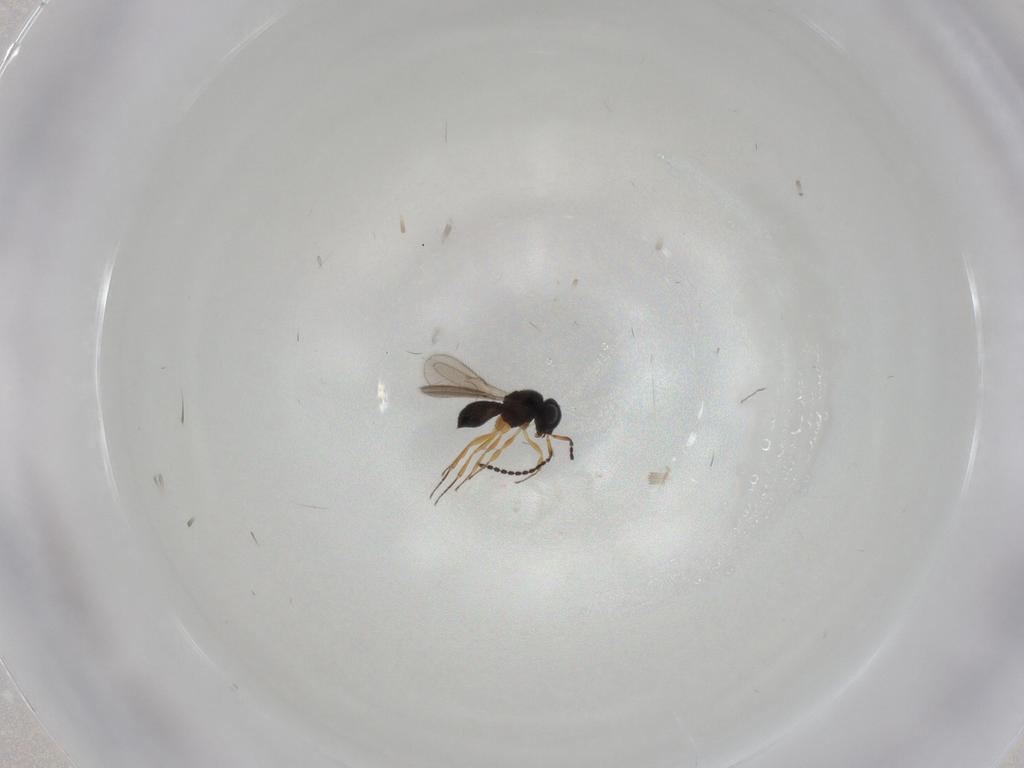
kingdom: Animalia
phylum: Arthropoda
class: Insecta
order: Hymenoptera
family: Scelionidae
